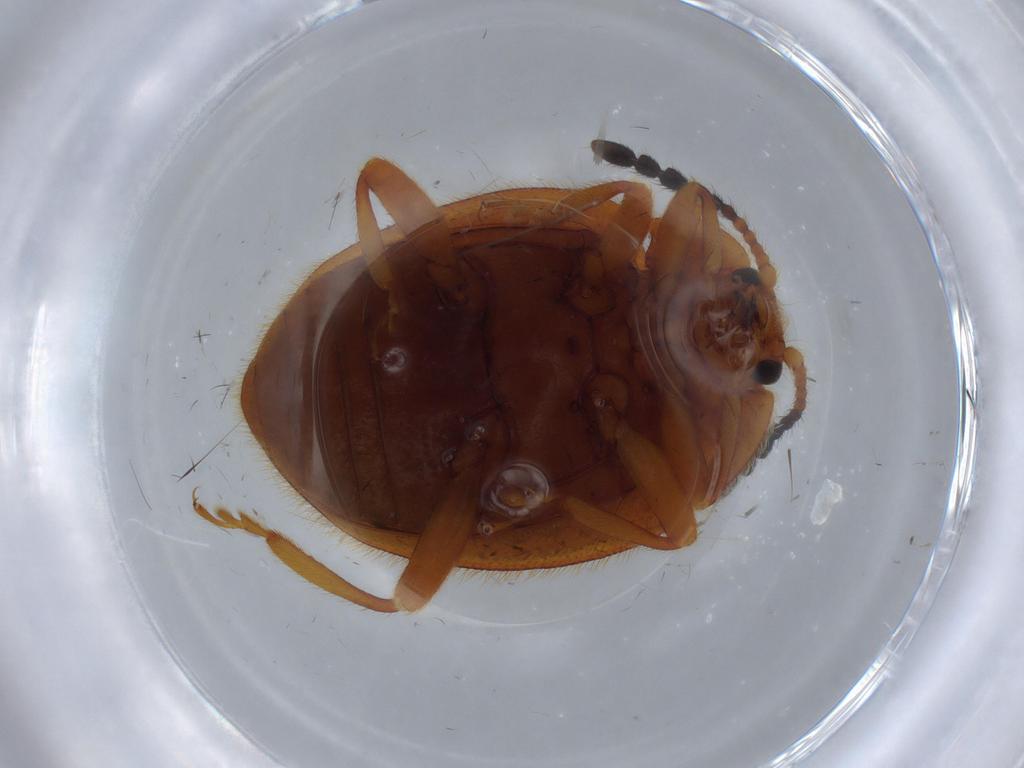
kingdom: Animalia
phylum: Arthropoda
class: Insecta
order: Coleoptera
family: Endomychidae
